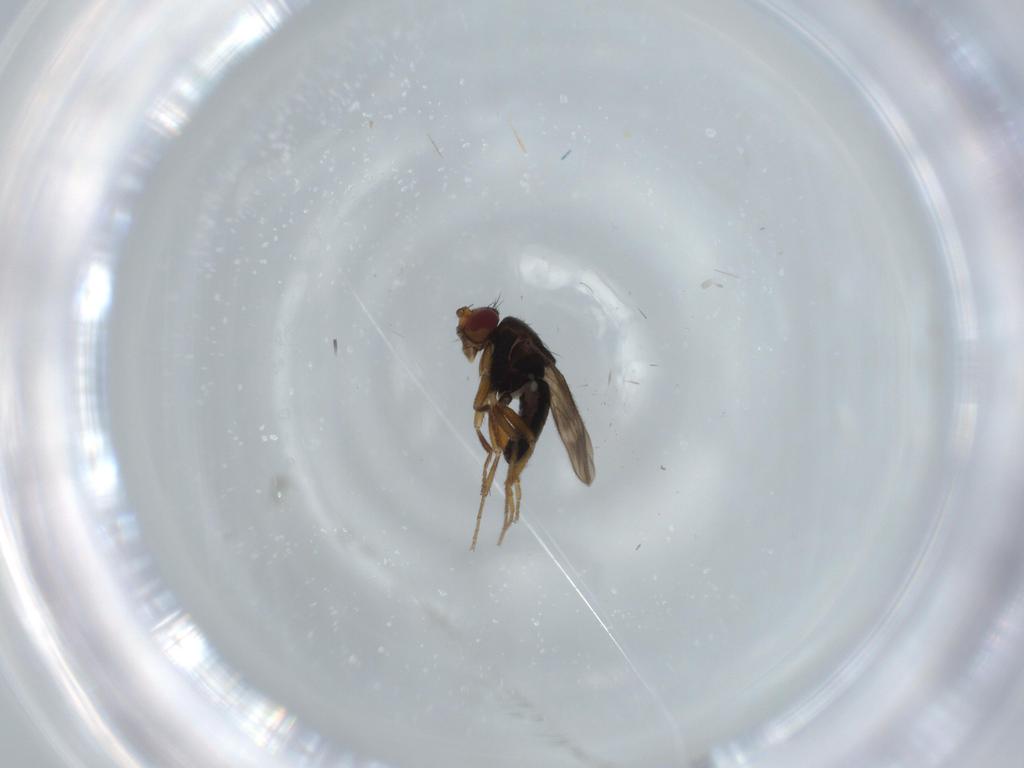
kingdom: Animalia
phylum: Arthropoda
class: Insecta
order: Diptera
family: Sphaeroceridae
